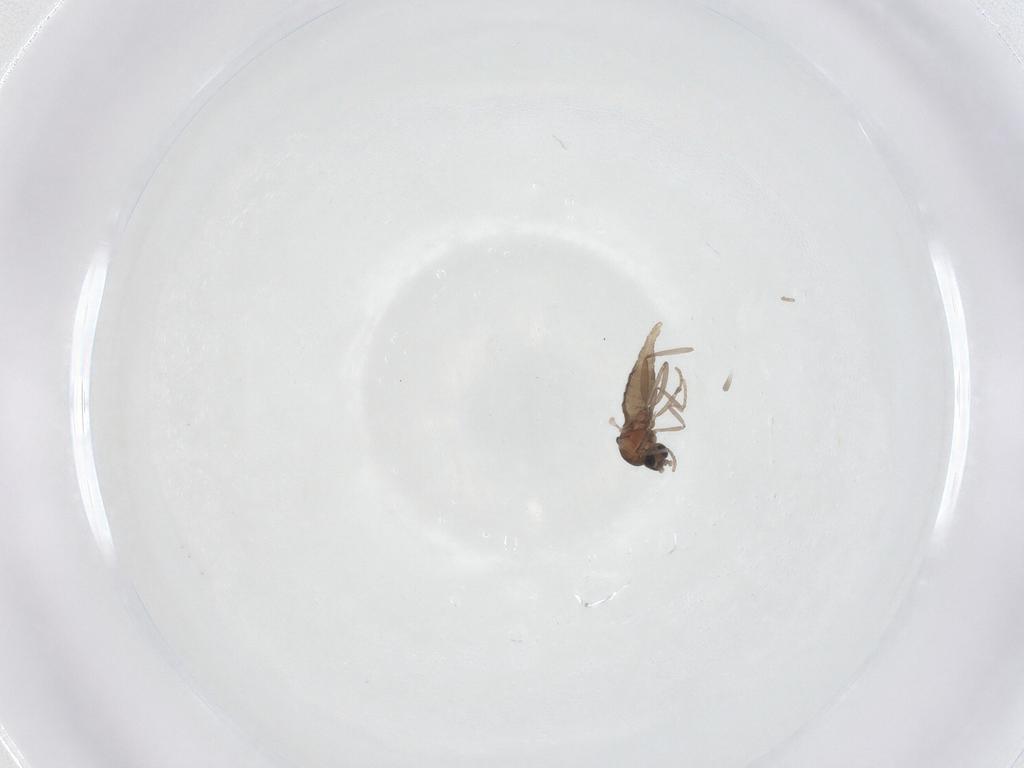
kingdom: Animalia
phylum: Arthropoda
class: Insecta
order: Diptera
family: Cecidomyiidae
